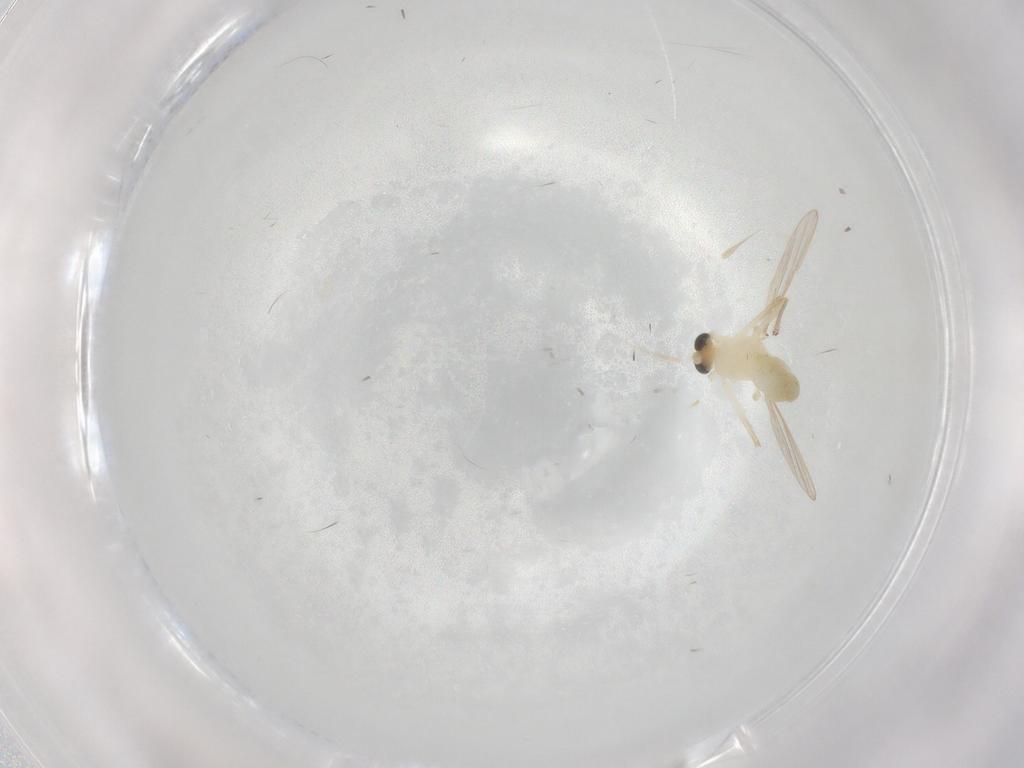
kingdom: Animalia
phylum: Arthropoda
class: Insecta
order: Diptera
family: Chironomidae
